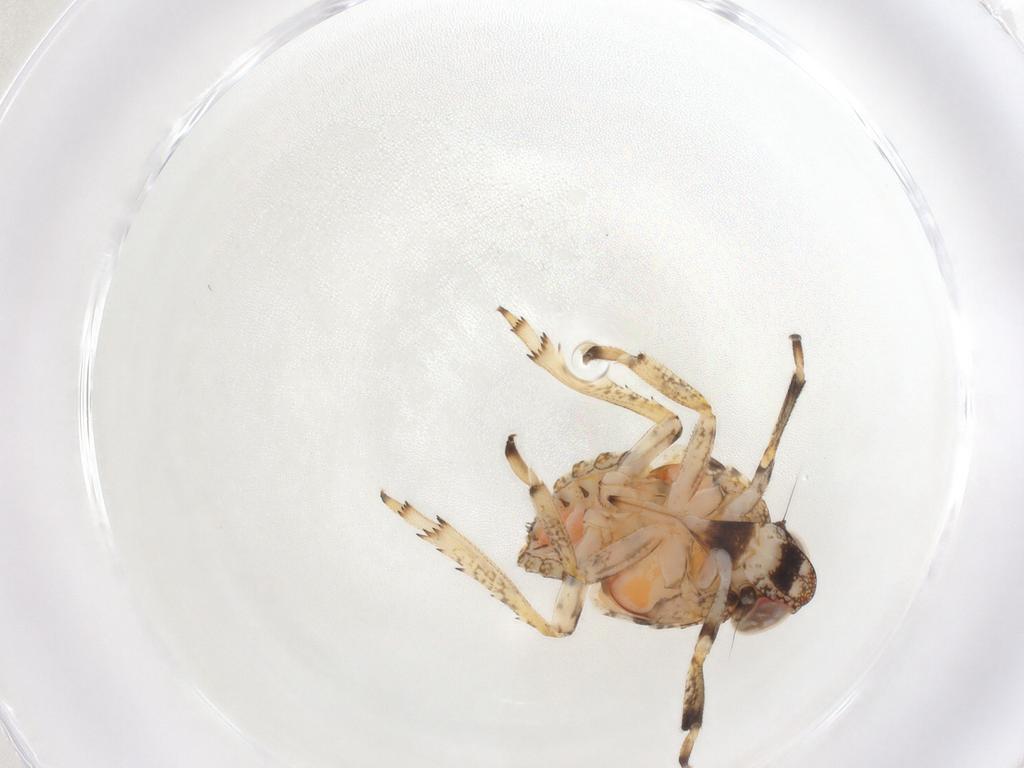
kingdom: Animalia
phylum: Arthropoda
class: Insecta
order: Hemiptera
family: Issidae
